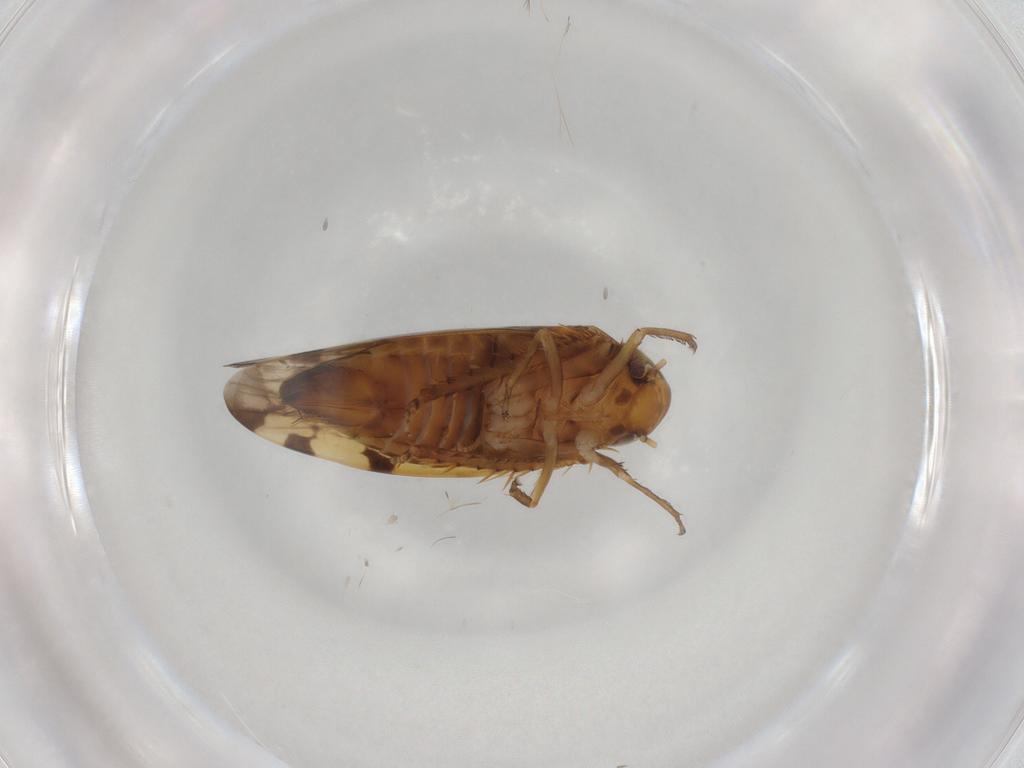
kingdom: Animalia
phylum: Arthropoda
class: Insecta
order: Hemiptera
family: Cicadellidae
